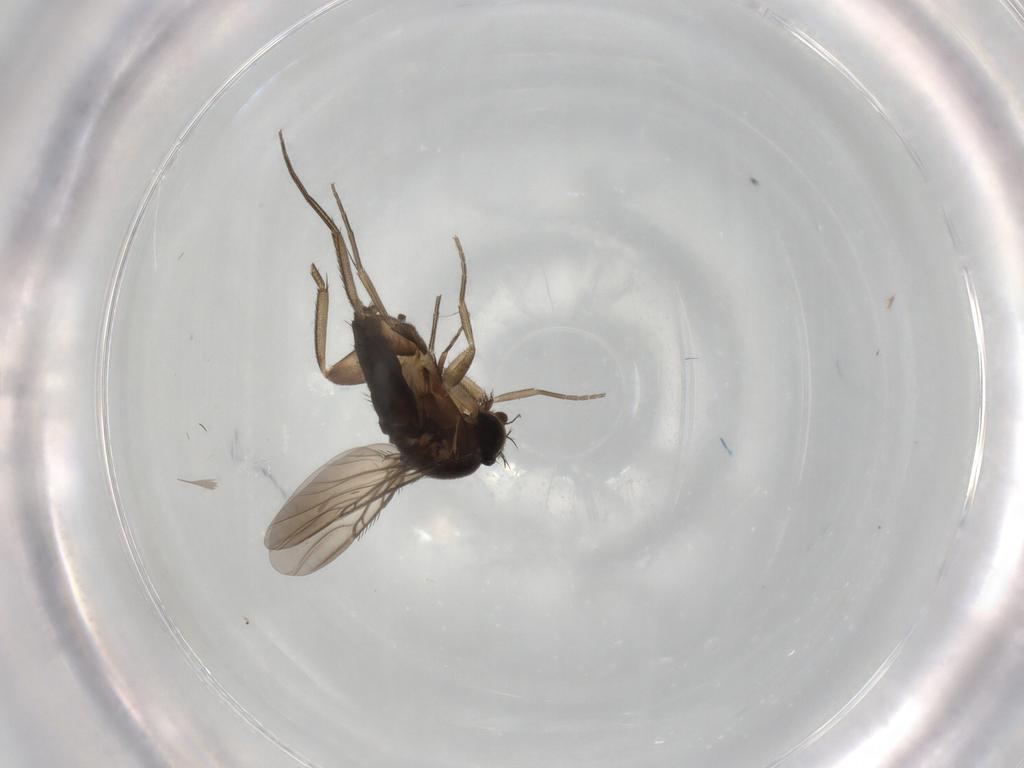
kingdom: Animalia
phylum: Arthropoda
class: Insecta
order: Diptera
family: Phoridae
